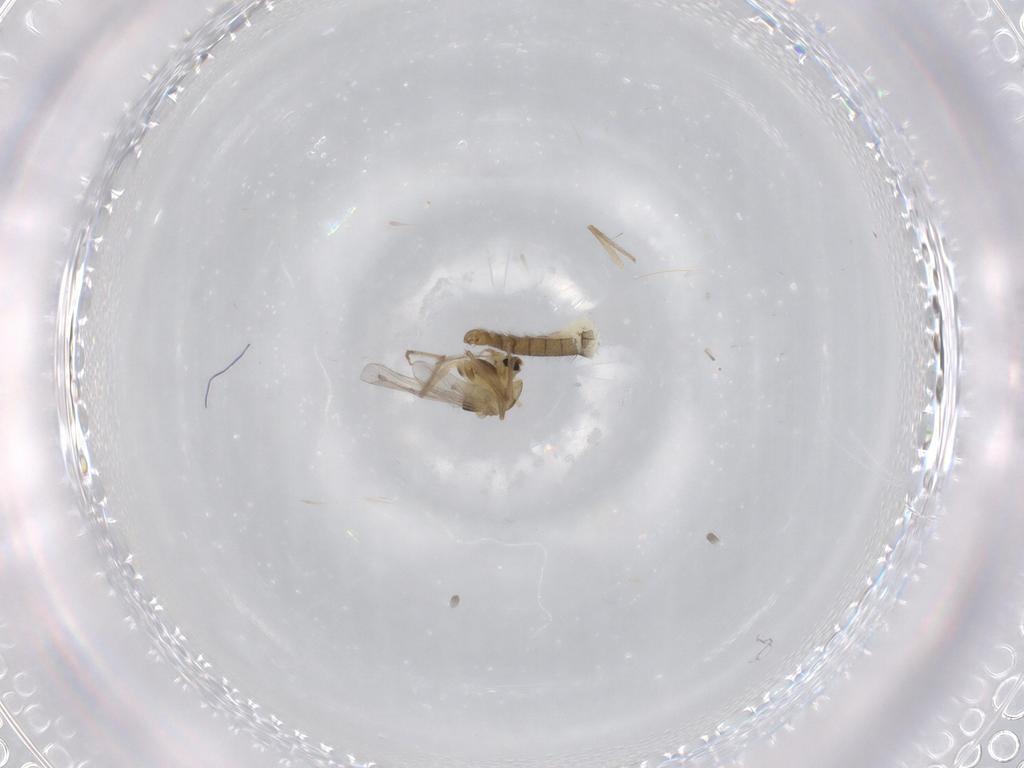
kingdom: Animalia
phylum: Arthropoda
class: Insecta
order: Diptera
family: Chironomidae
